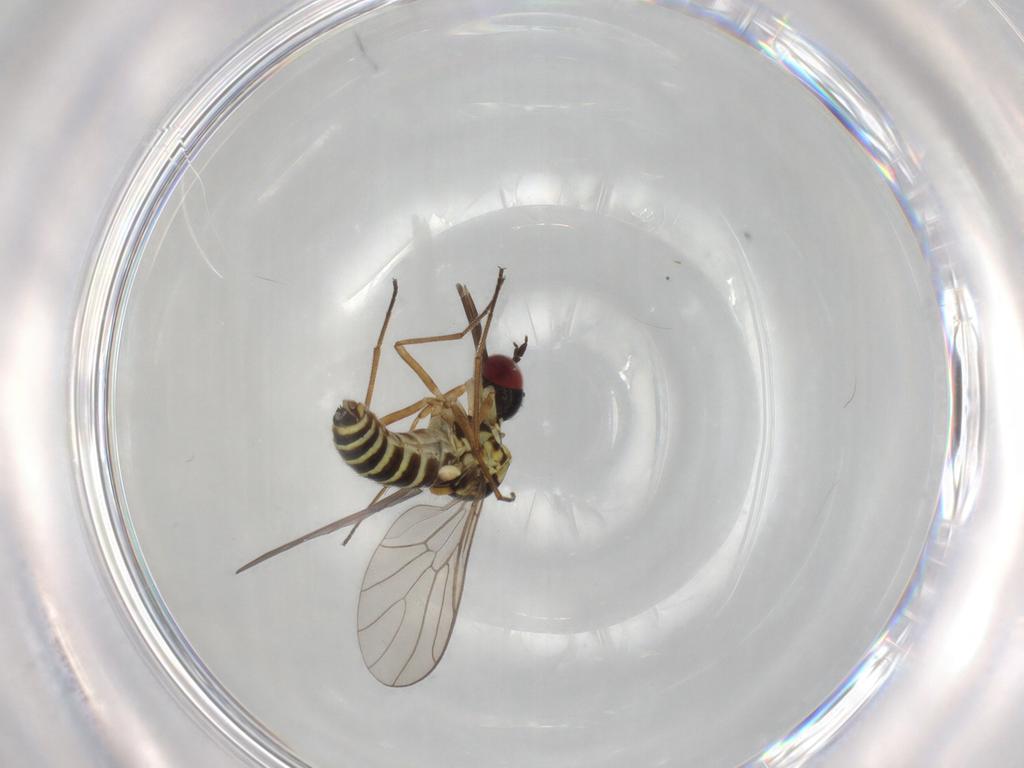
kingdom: Animalia
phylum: Arthropoda
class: Insecta
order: Diptera
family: Mythicomyiidae
